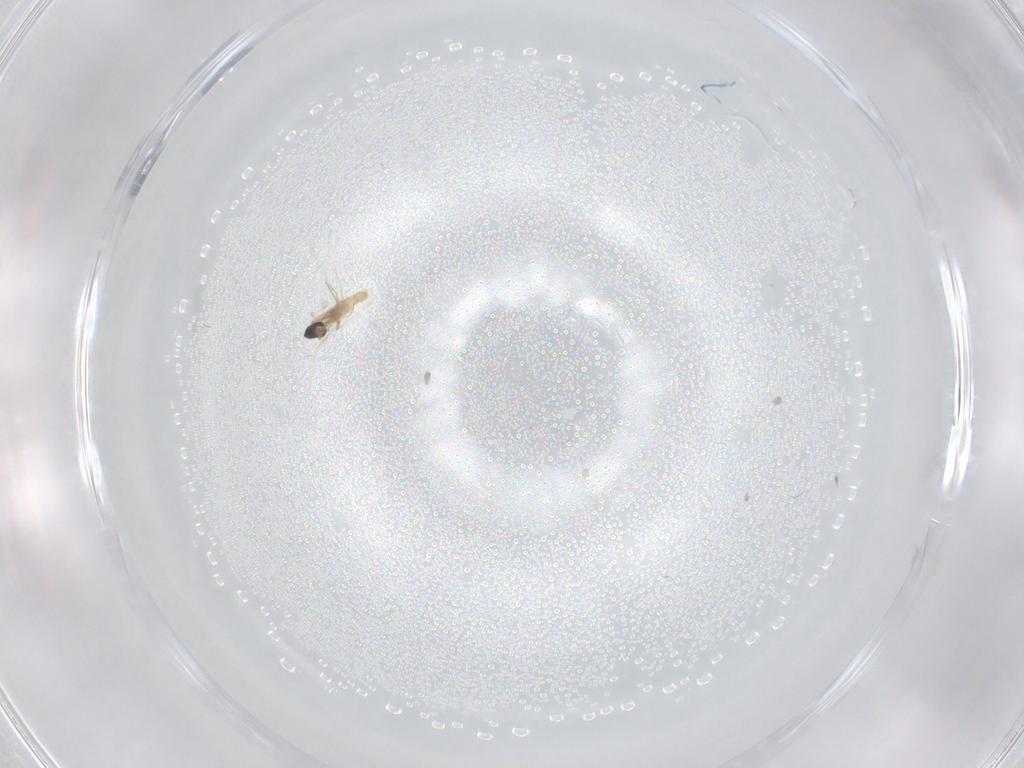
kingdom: Animalia
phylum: Arthropoda
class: Insecta
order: Diptera
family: Cecidomyiidae
